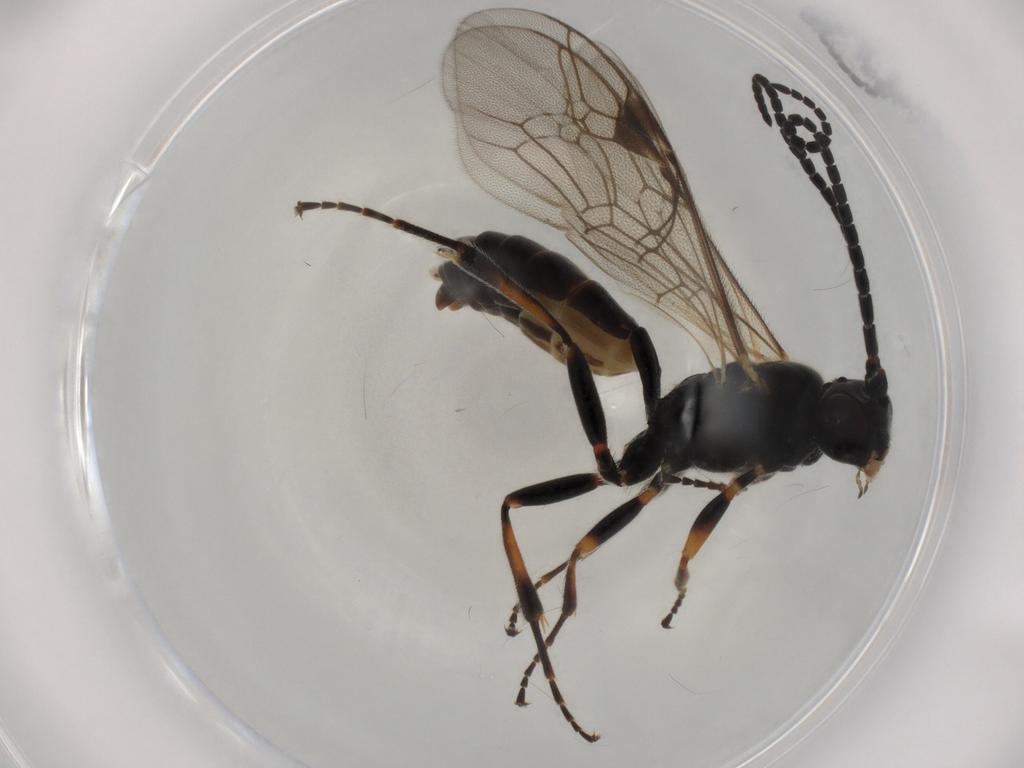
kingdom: Animalia
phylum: Arthropoda
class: Insecta
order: Hymenoptera
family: Ichneumonidae
